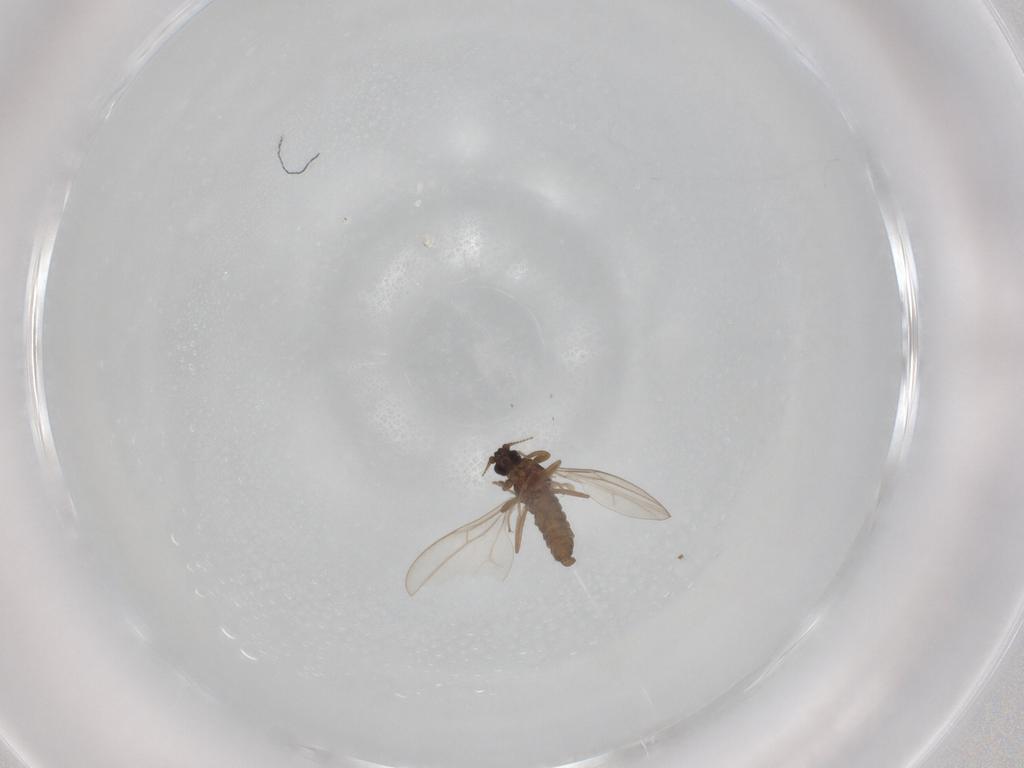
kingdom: Animalia
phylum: Arthropoda
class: Insecta
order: Diptera
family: Cecidomyiidae
